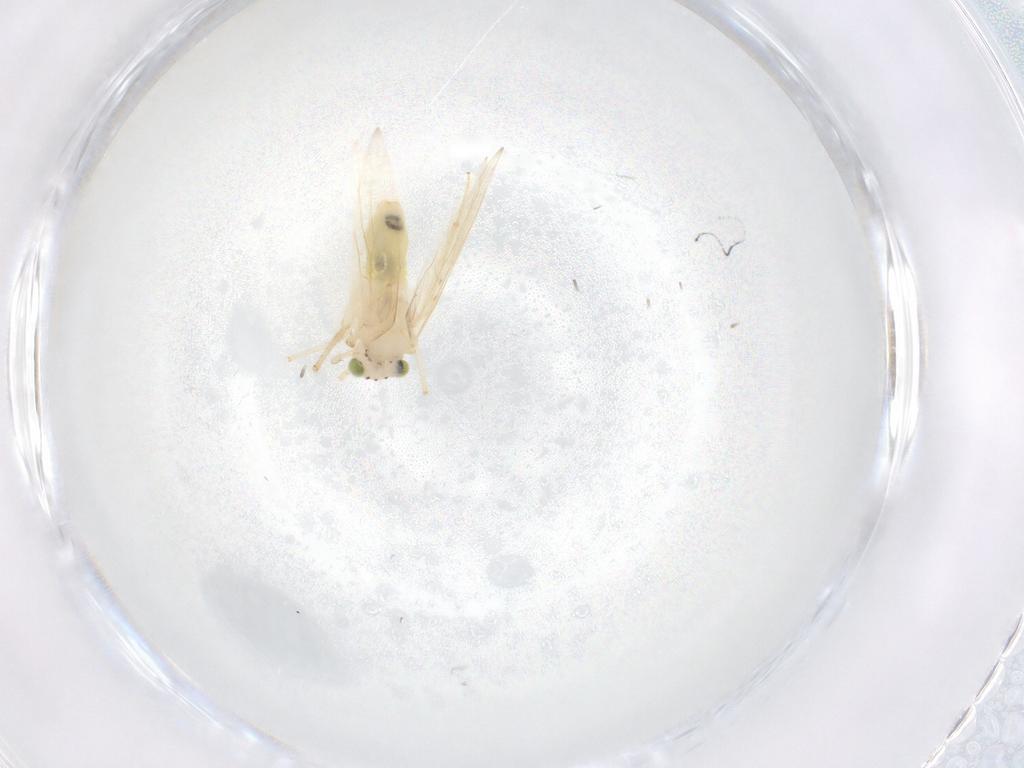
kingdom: Animalia
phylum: Arthropoda
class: Insecta
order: Psocodea
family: Lepidopsocidae
